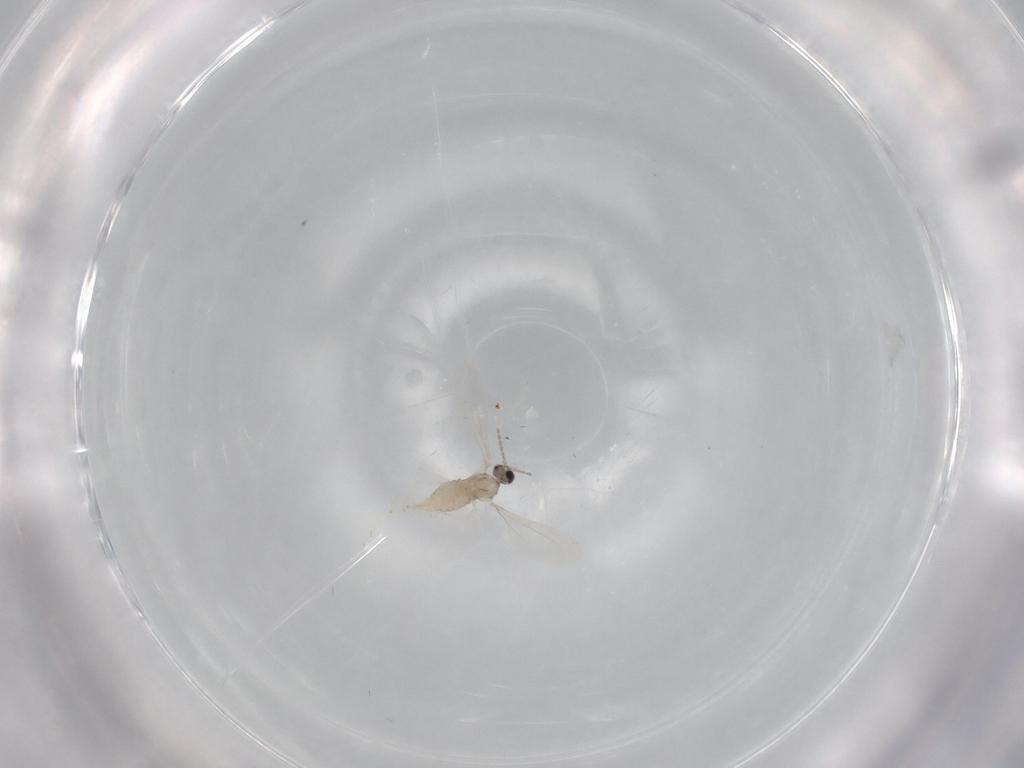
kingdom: Animalia
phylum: Arthropoda
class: Insecta
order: Diptera
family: Cecidomyiidae
